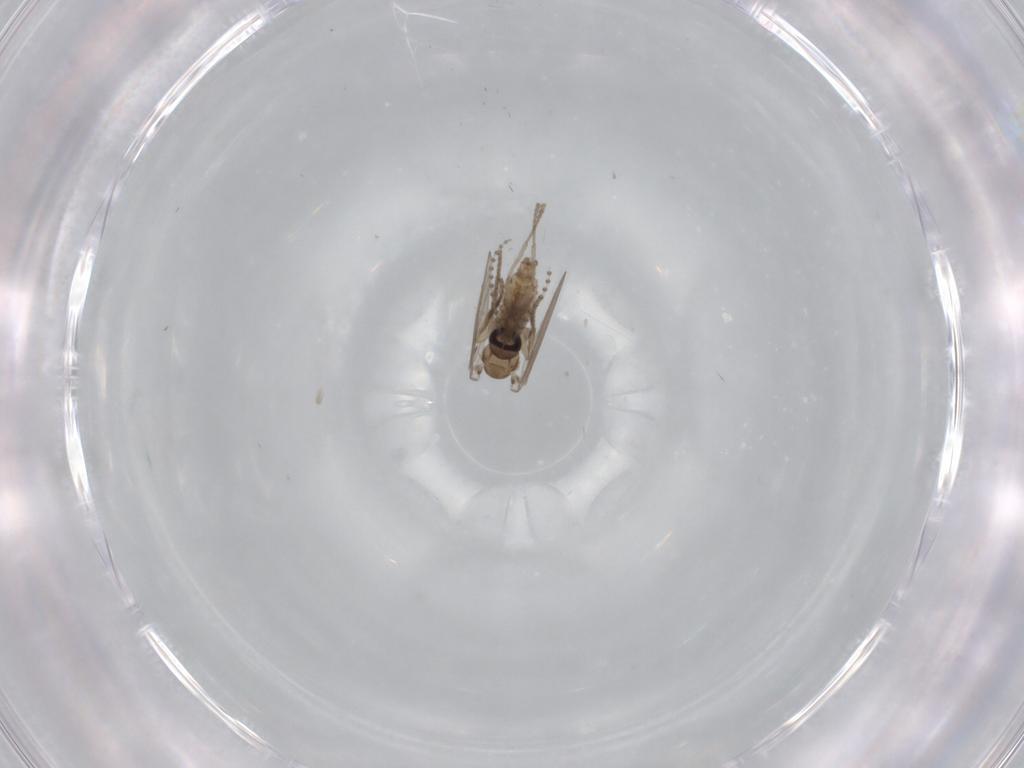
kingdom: Animalia
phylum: Arthropoda
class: Insecta
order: Diptera
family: Psychodidae
